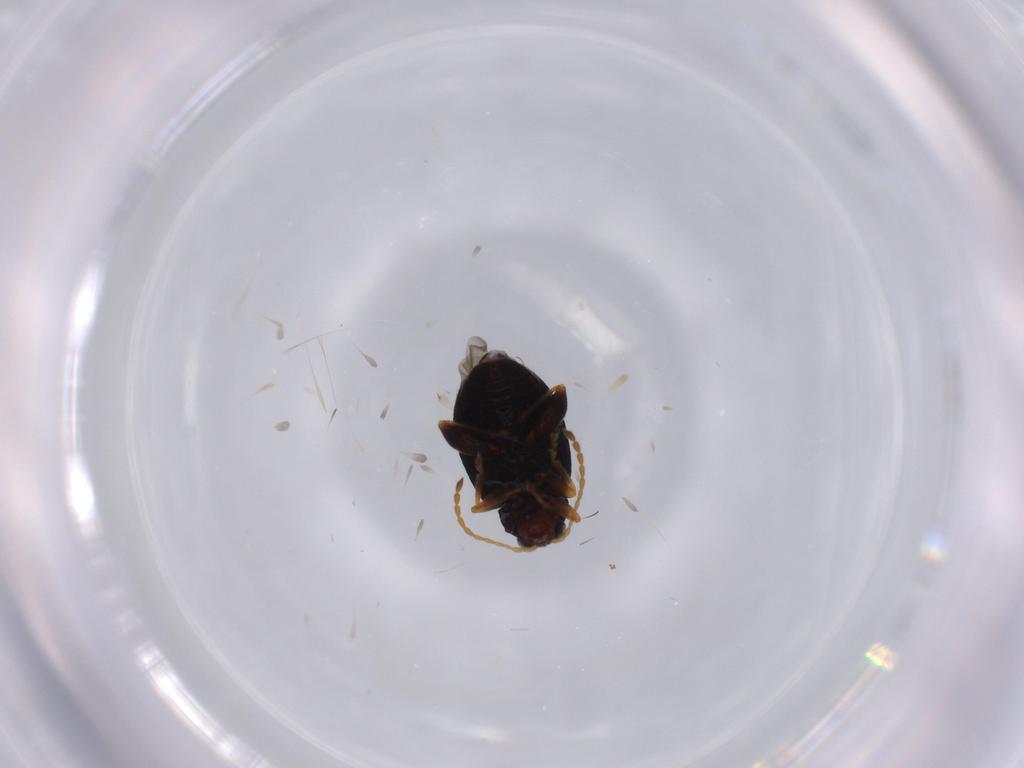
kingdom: Animalia
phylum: Arthropoda
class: Insecta
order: Coleoptera
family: Chrysomelidae
